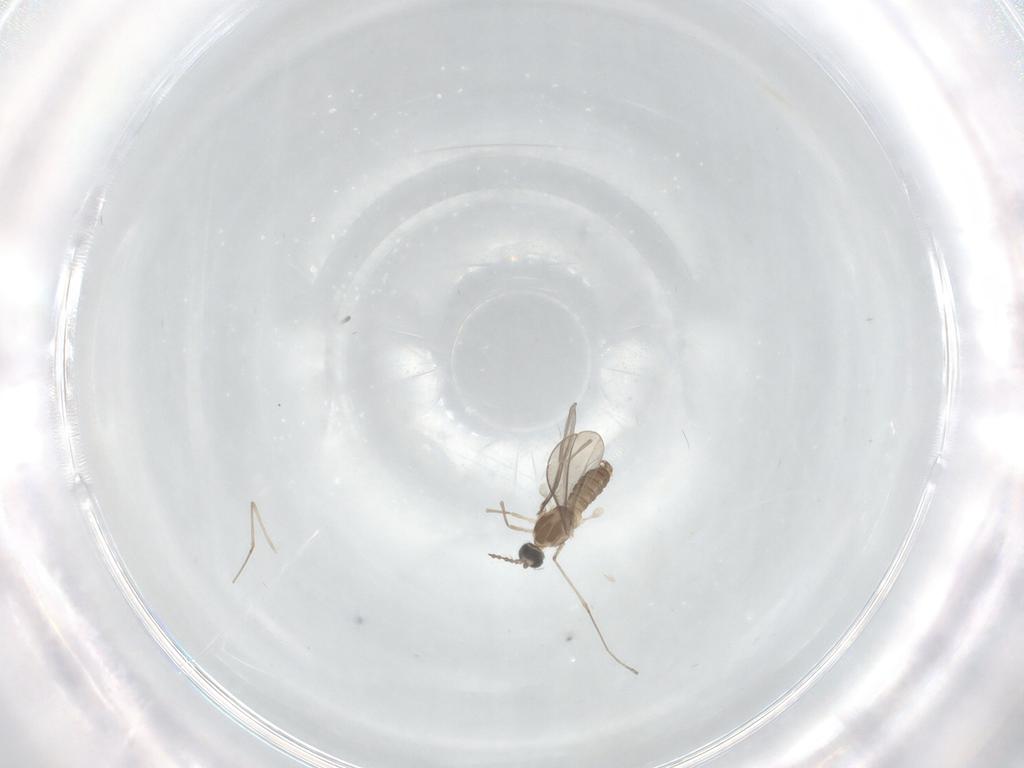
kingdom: Animalia
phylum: Arthropoda
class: Insecta
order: Diptera
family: Cecidomyiidae
